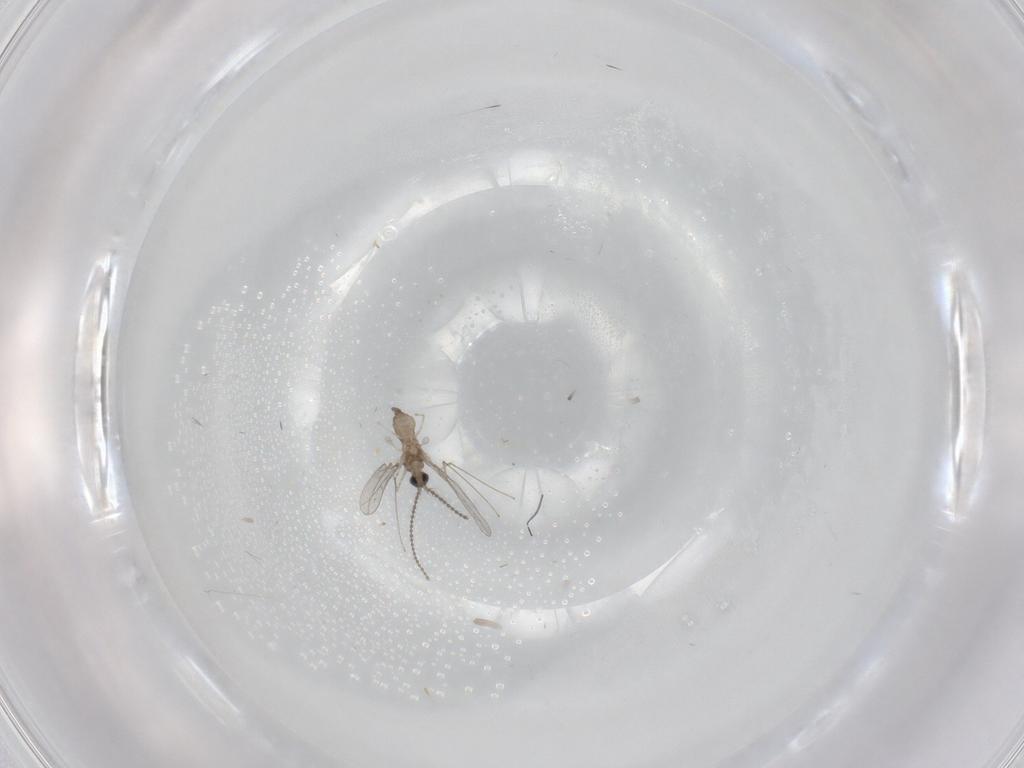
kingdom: Animalia
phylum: Arthropoda
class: Insecta
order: Diptera
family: Cecidomyiidae
